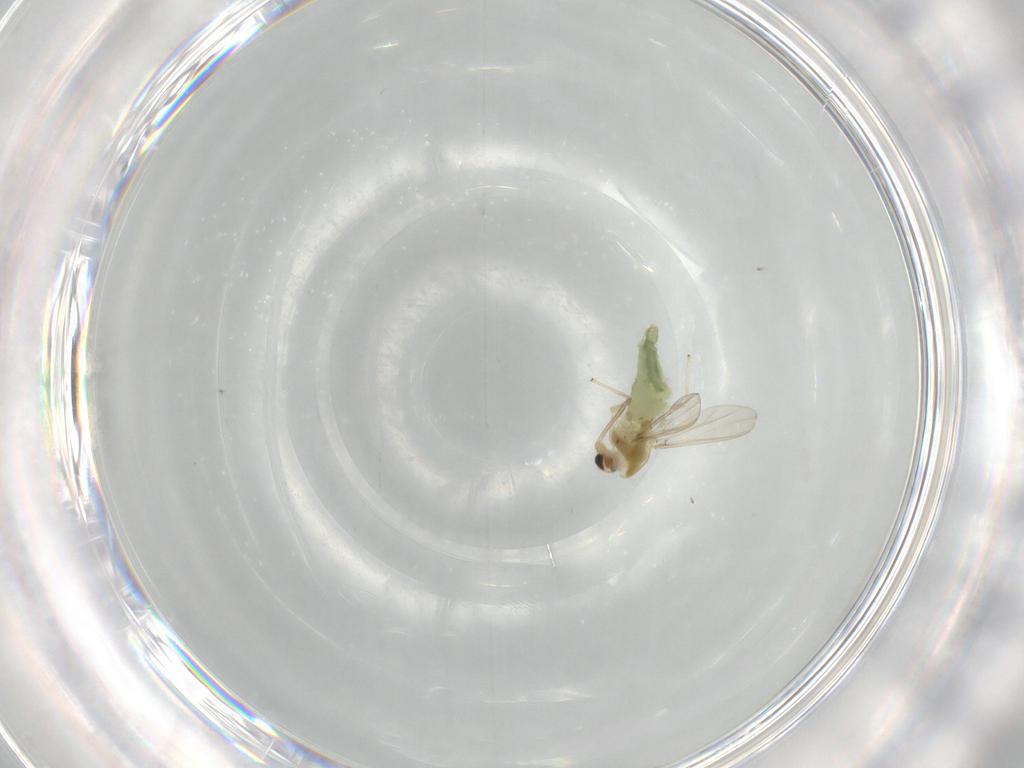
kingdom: Animalia
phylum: Arthropoda
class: Insecta
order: Diptera
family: Chironomidae
